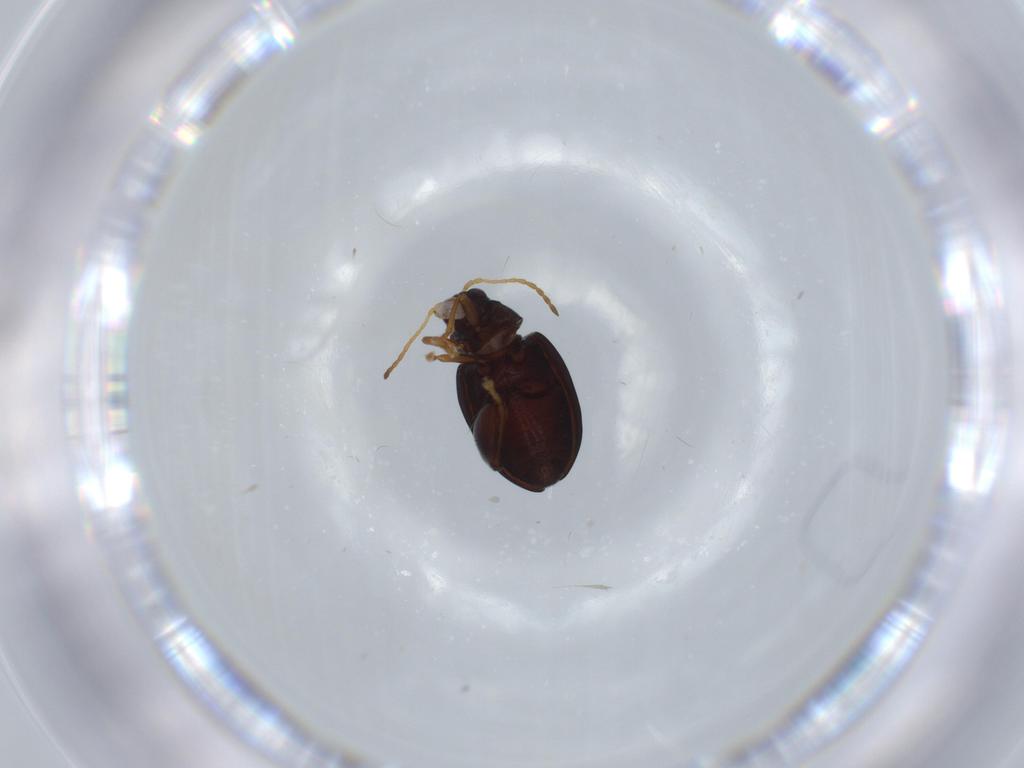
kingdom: Animalia
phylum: Arthropoda
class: Insecta
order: Coleoptera
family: Chrysomelidae
